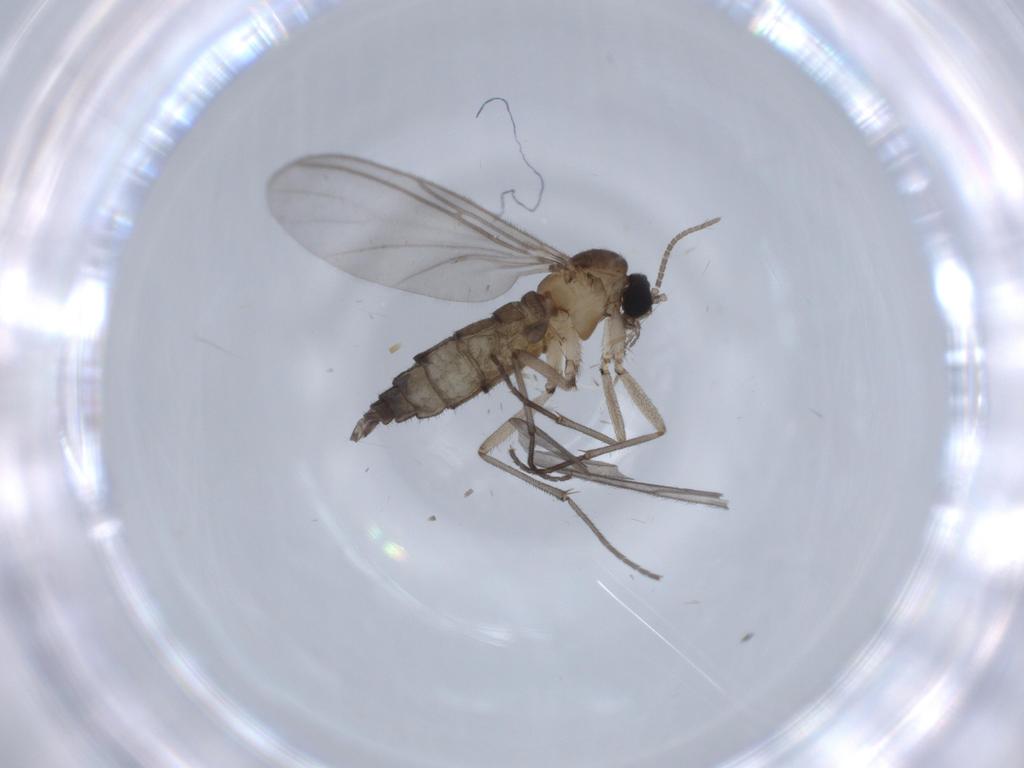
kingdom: Animalia
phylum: Arthropoda
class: Insecta
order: Diptera
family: Sciaridae
